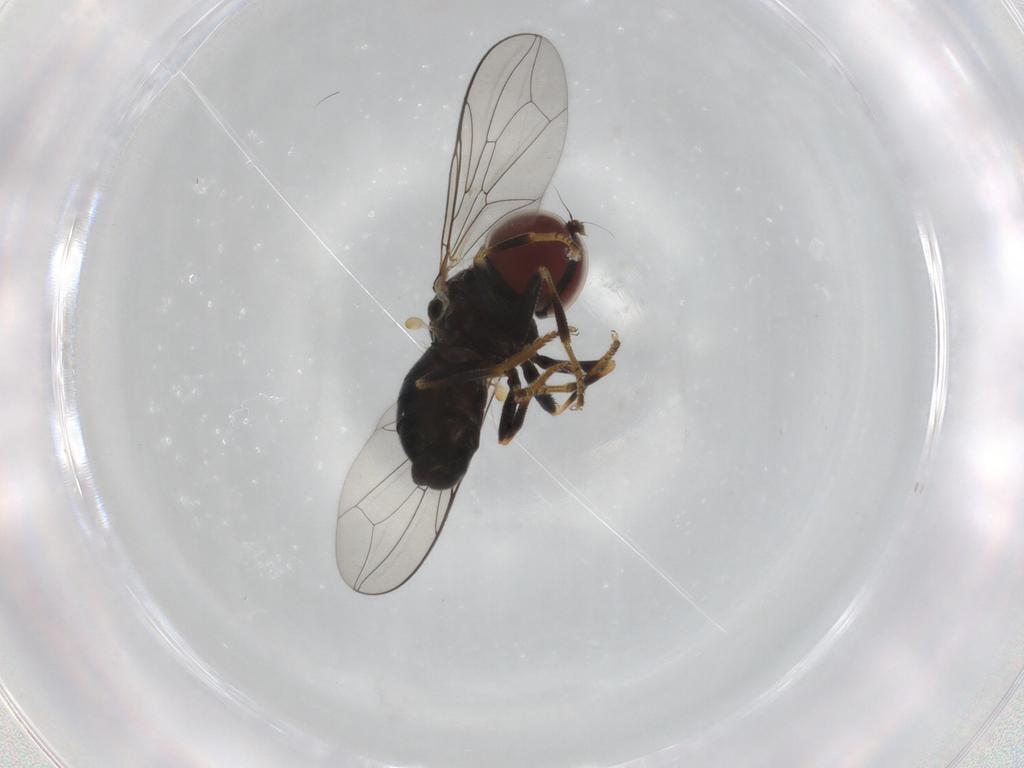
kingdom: Animalia
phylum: Arthropoda
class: Insecta
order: Diptera
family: Pipunculidae
